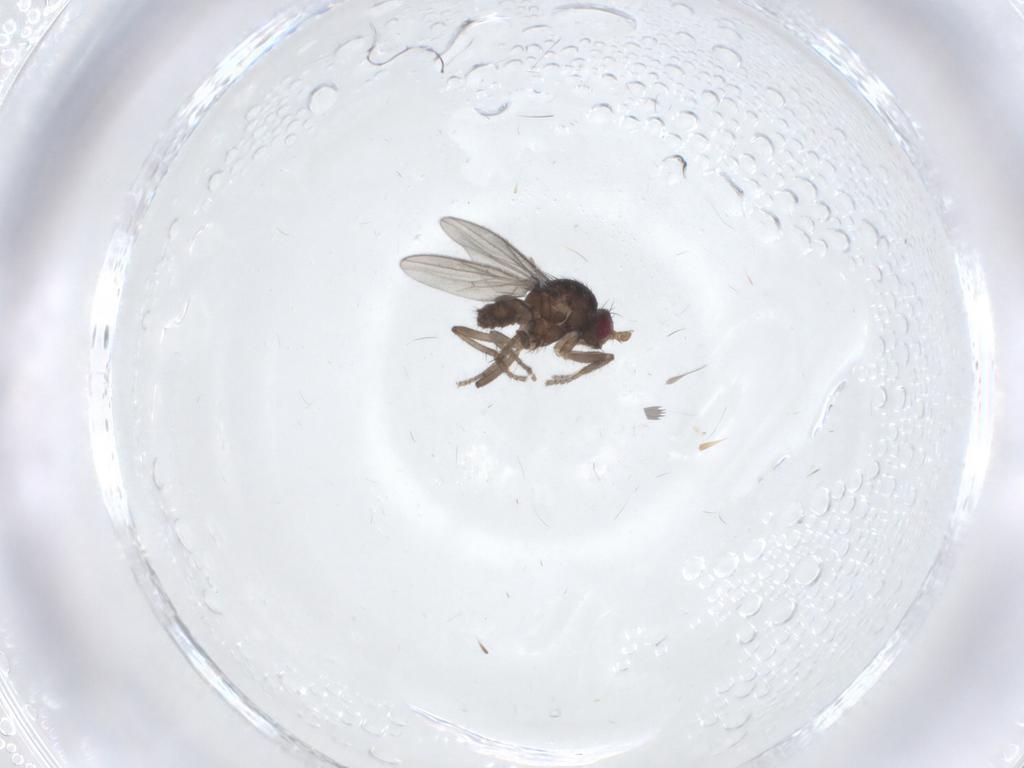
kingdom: Animalia
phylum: Arthropoda
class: Insecta
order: Diptera
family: Sphaeroceridae
